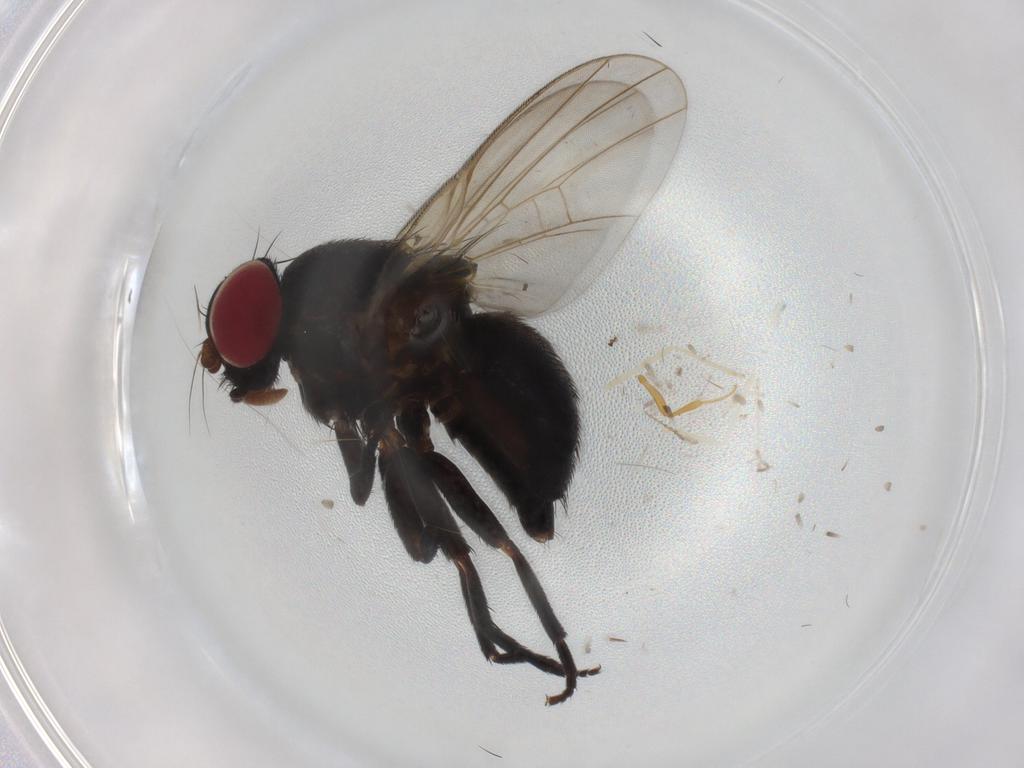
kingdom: Animalia
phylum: Arthropoda
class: Insecta
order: Diptera
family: Agromyzidae
